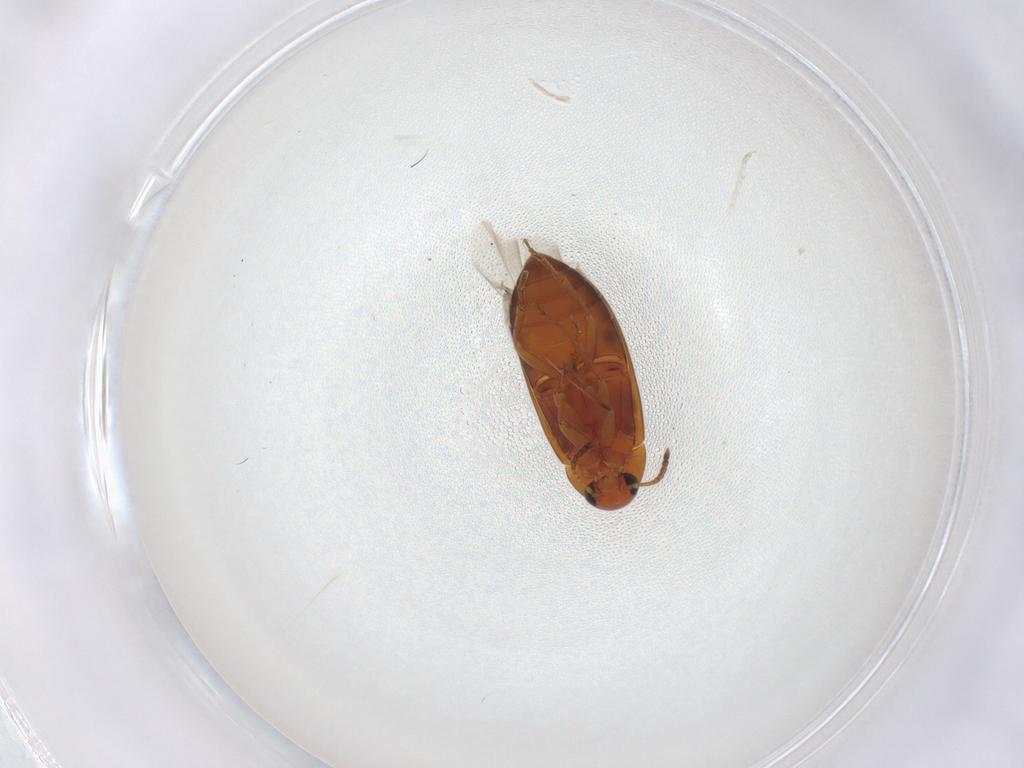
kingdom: Animalia
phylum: Arthropoda
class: Insecta
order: Coleoptera
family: Scraptiidae
